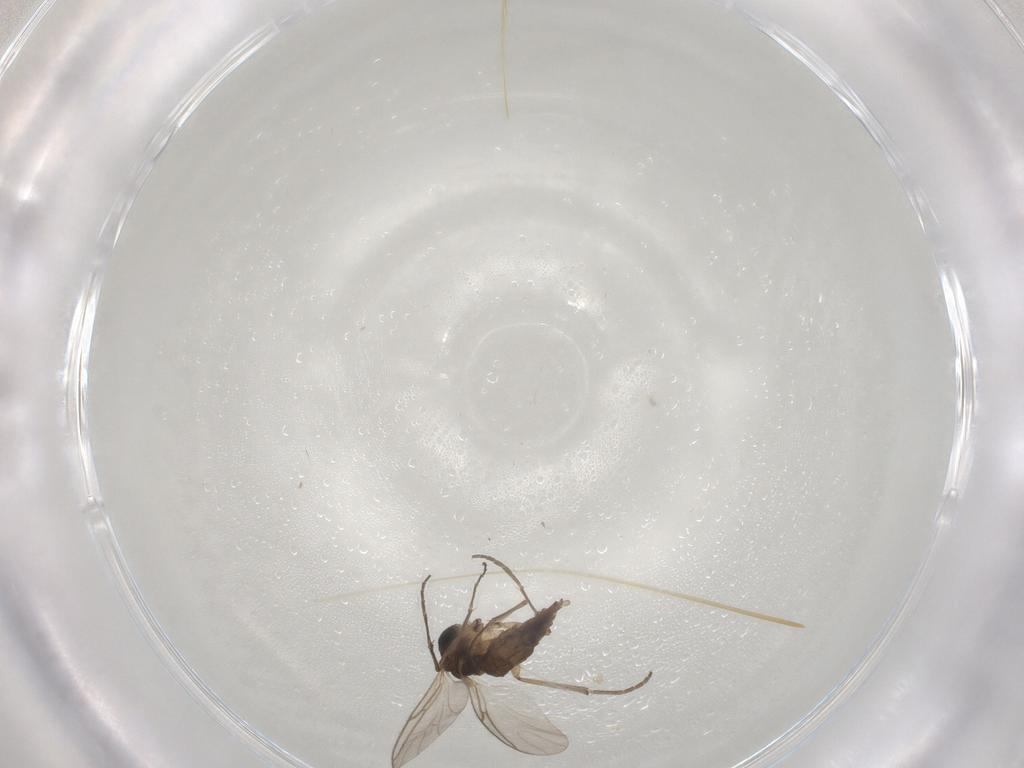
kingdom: Animalia
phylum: Arthropoda
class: Insecta
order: Diptera
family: Sciaridae
